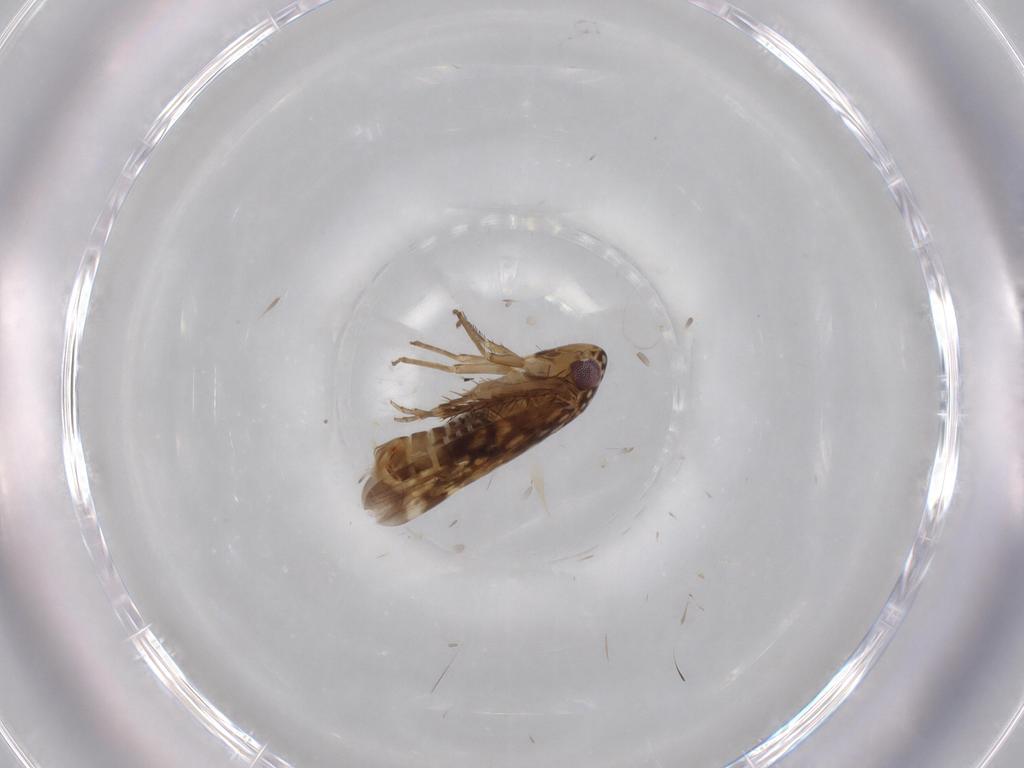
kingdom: Animalia
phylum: Arthropoda
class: Insecta
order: Hemiptera
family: Cicadellidae
